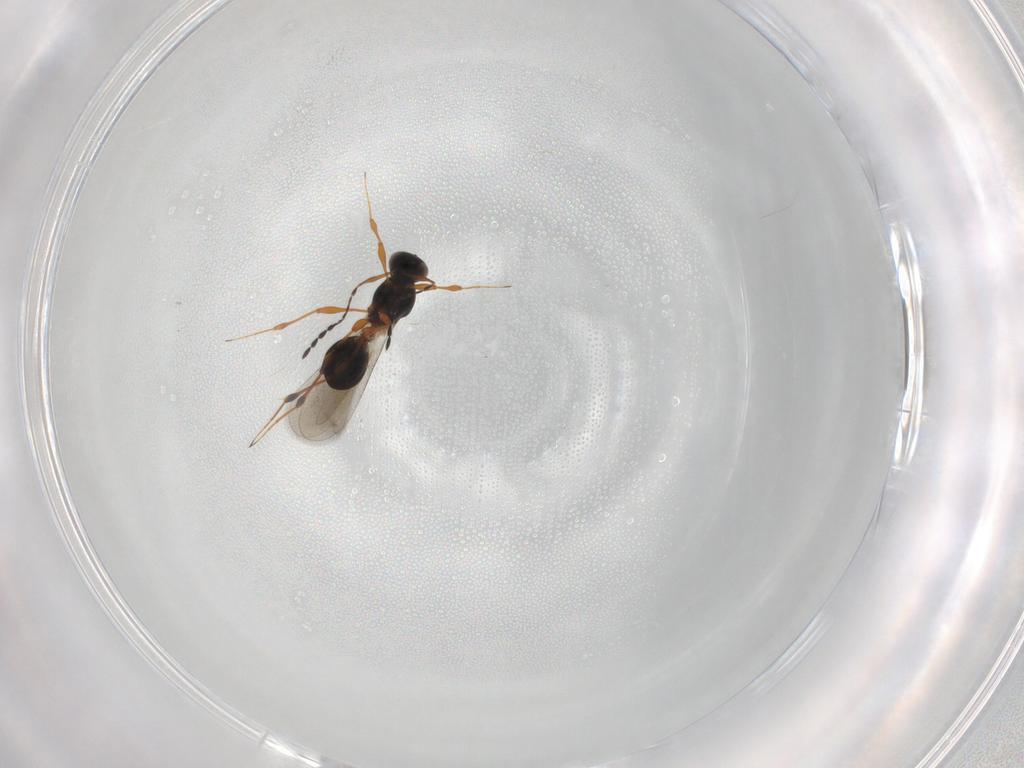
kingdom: Animalia
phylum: Arthropoda
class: Insecta
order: Hymenoptera
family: Platygastridae
